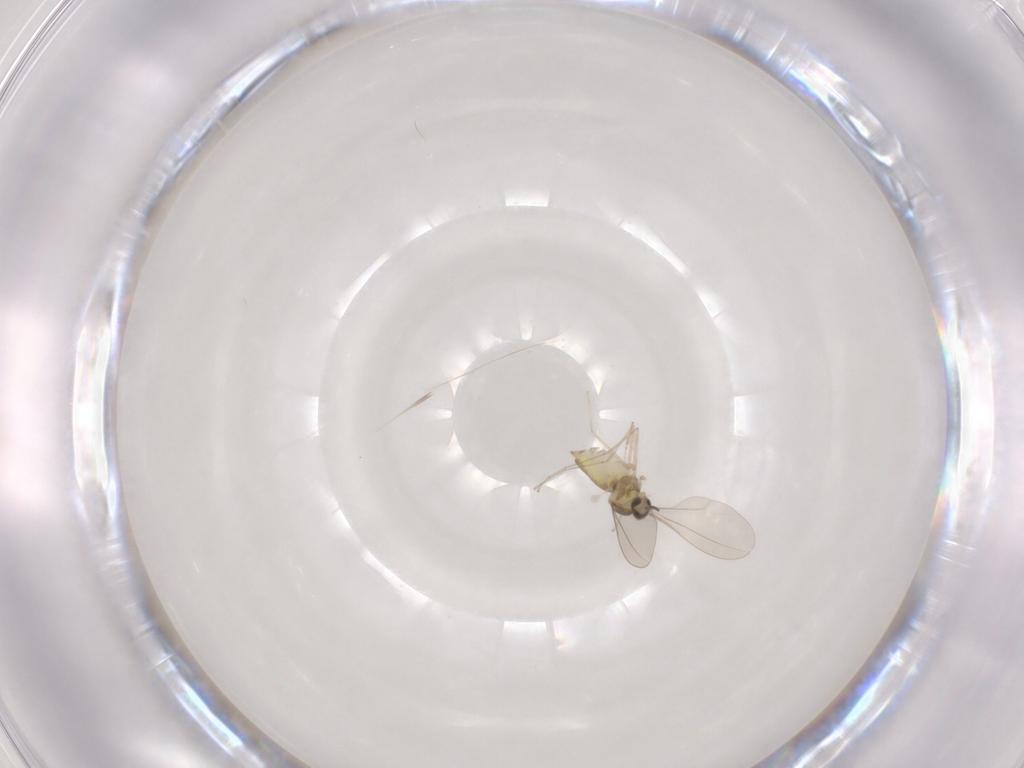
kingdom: Animalia
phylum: Arthropoda
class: Insecta
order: Diptera
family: Cecidomyiidae
